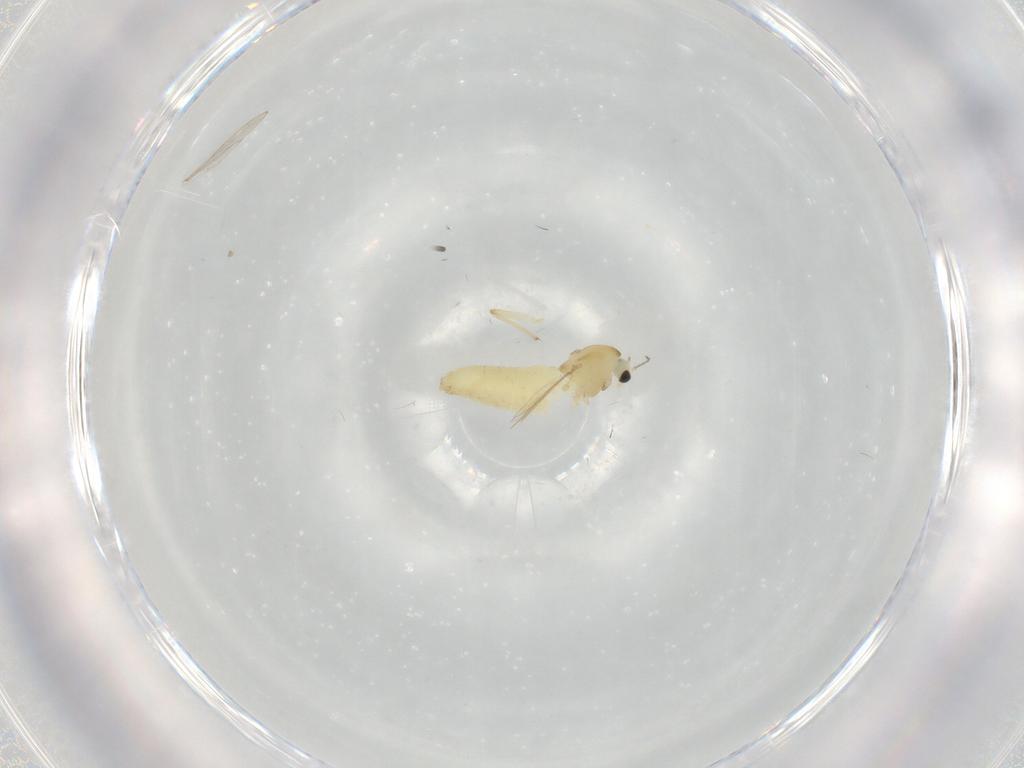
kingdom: Animalia
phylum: Arthropoda
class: Insecta
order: Diptera
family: Chironomidae
